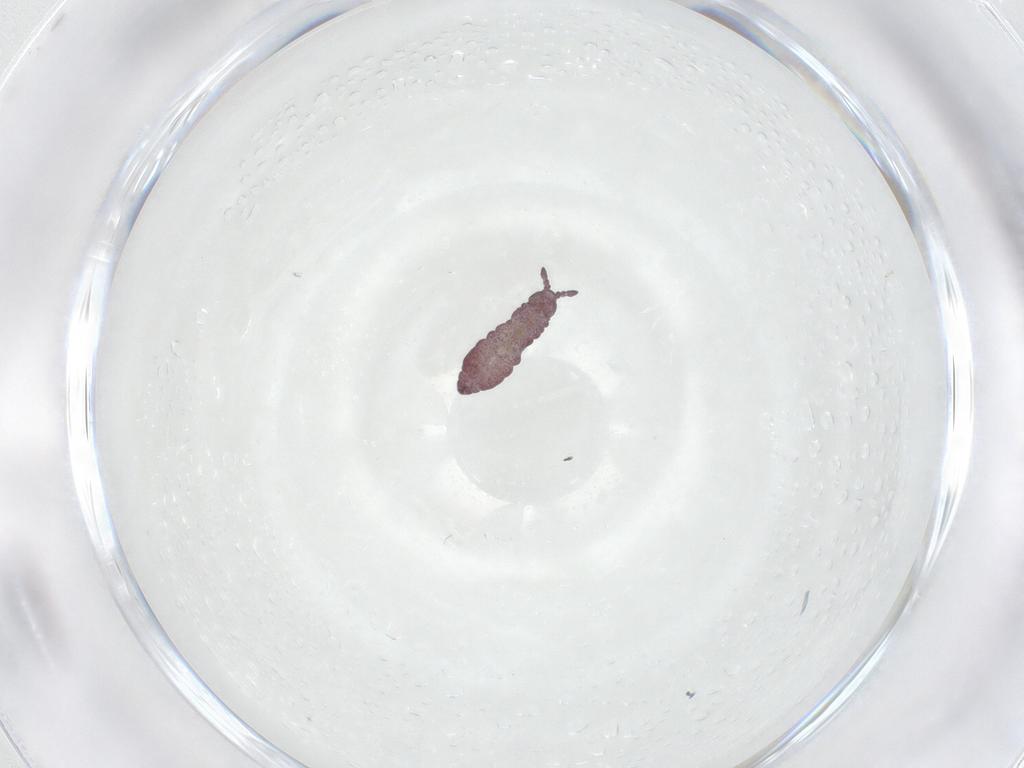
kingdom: Animalia
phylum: Arthropoda
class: Collembola
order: Poduromorpha
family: Hypogastruridae
